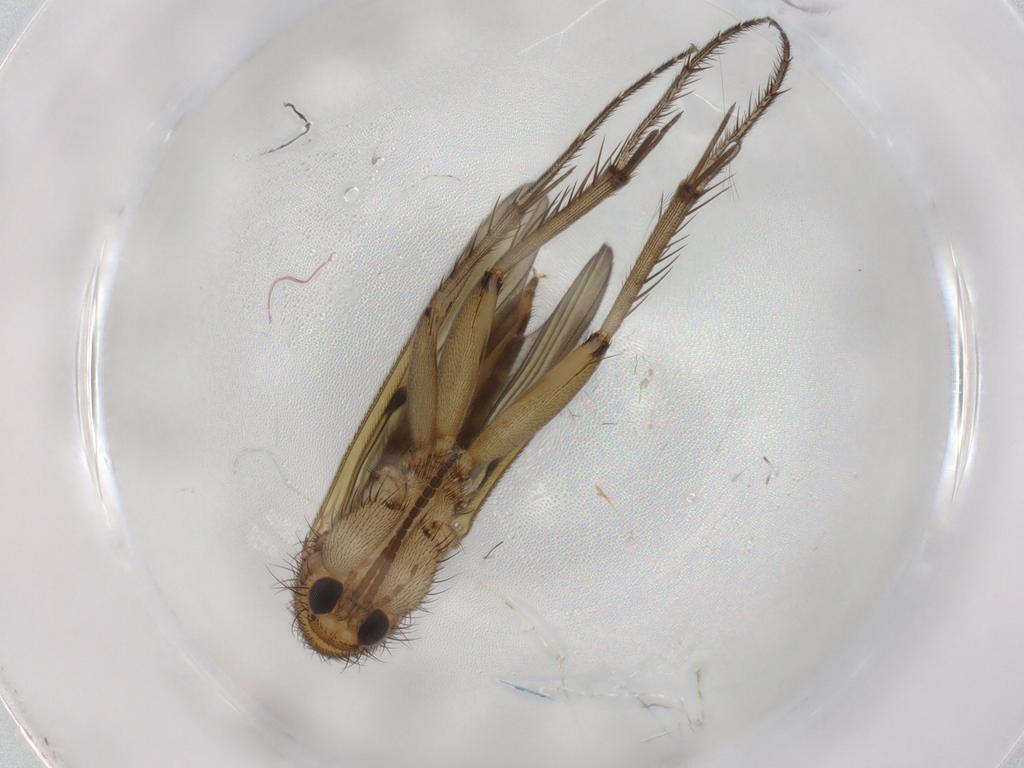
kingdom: Animalia
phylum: Arthropoda
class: Insecta
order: Diptera
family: Mycetophilidae
